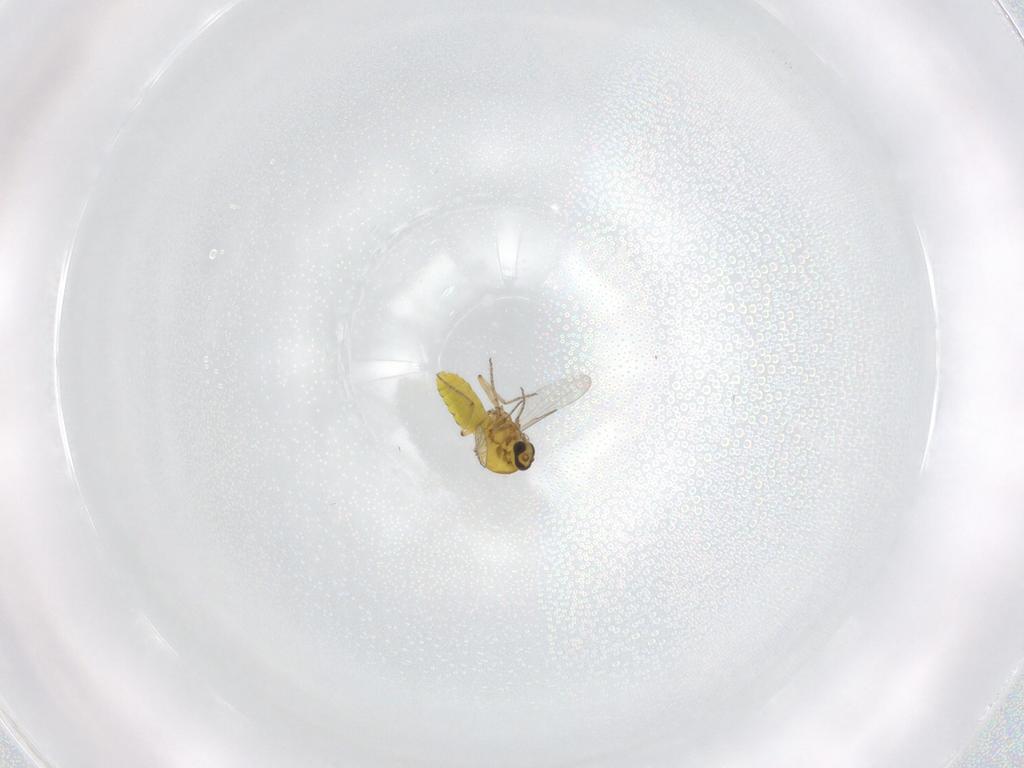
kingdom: Animalia
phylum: Arthropoda
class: Insecta
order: Diptera
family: Ceratopogonidae
